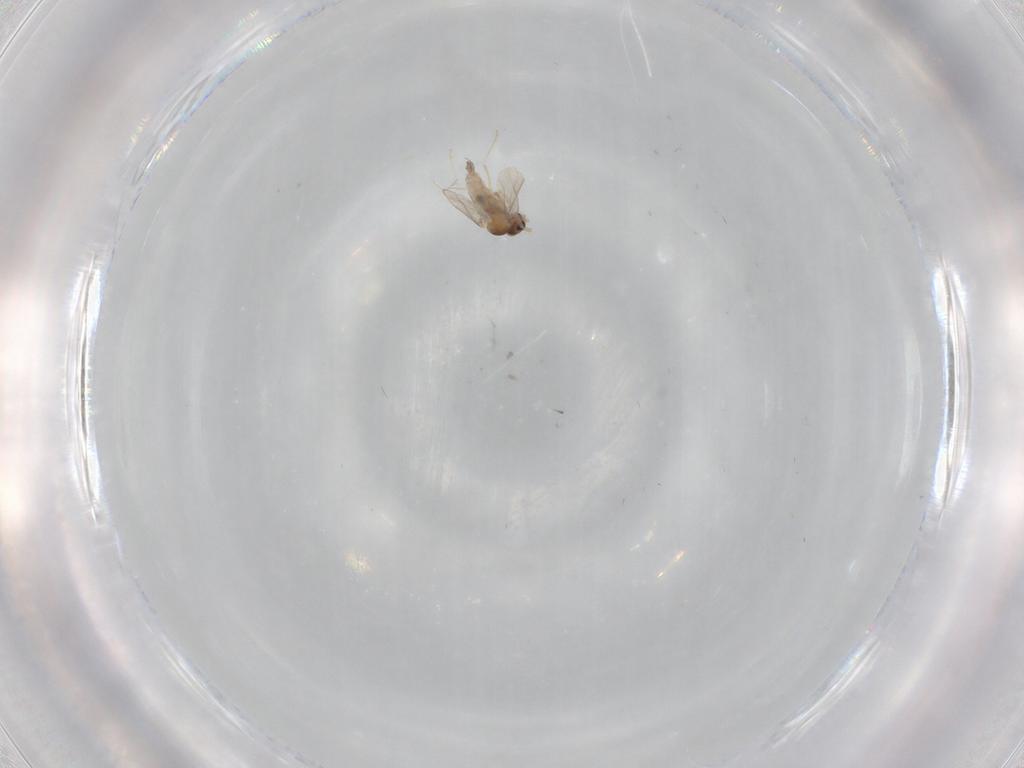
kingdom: Animalia
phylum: Arthropoda
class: Insecta
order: Diptera
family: Cecidomyiidae
